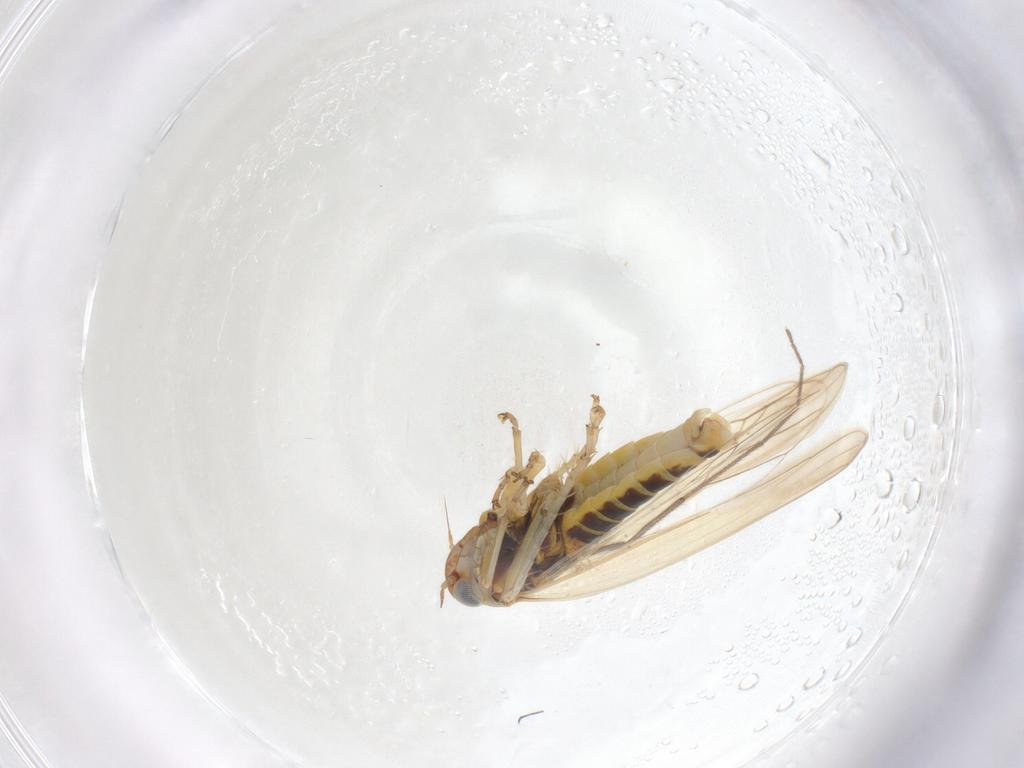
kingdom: Animalia
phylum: Arthropoda
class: Insecta
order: Hemiptera
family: Cicadellidae
